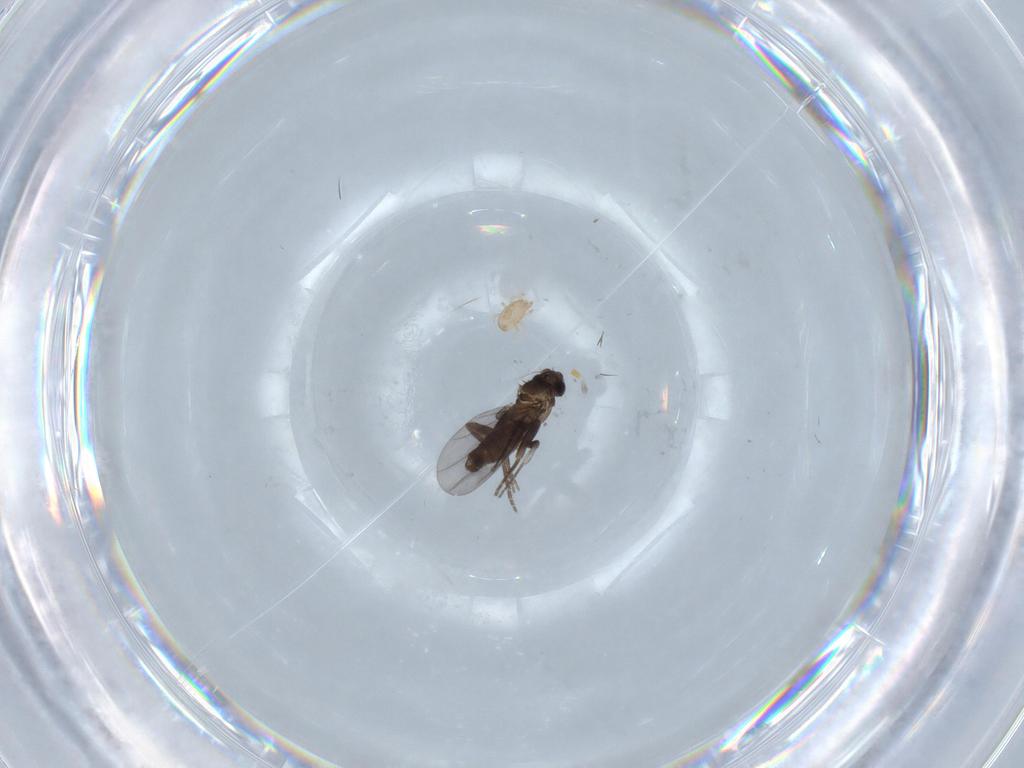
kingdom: Animalia
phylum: Arthropoda
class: Insecta
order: Diptera
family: Phoridae
